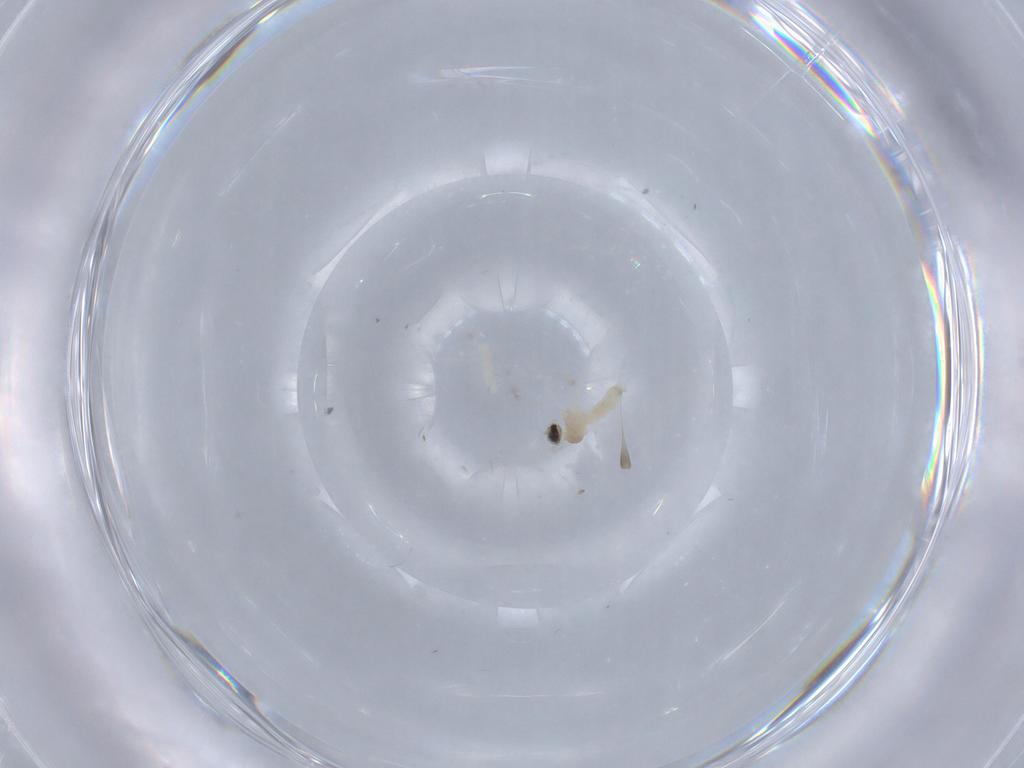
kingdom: Animalia
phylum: Arthropoda
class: Insecta
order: Diptera
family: Cecidomyiidae
